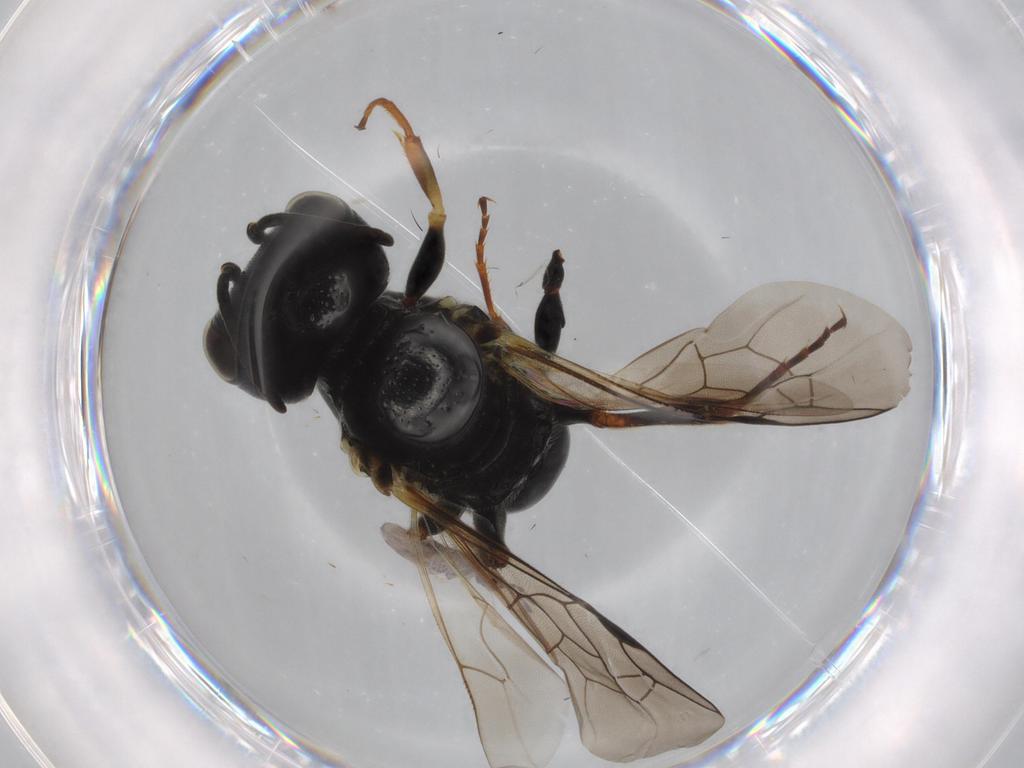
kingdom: Animalia
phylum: Arthropoda
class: Insecta
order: Hymenoptera
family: Crabronidae
